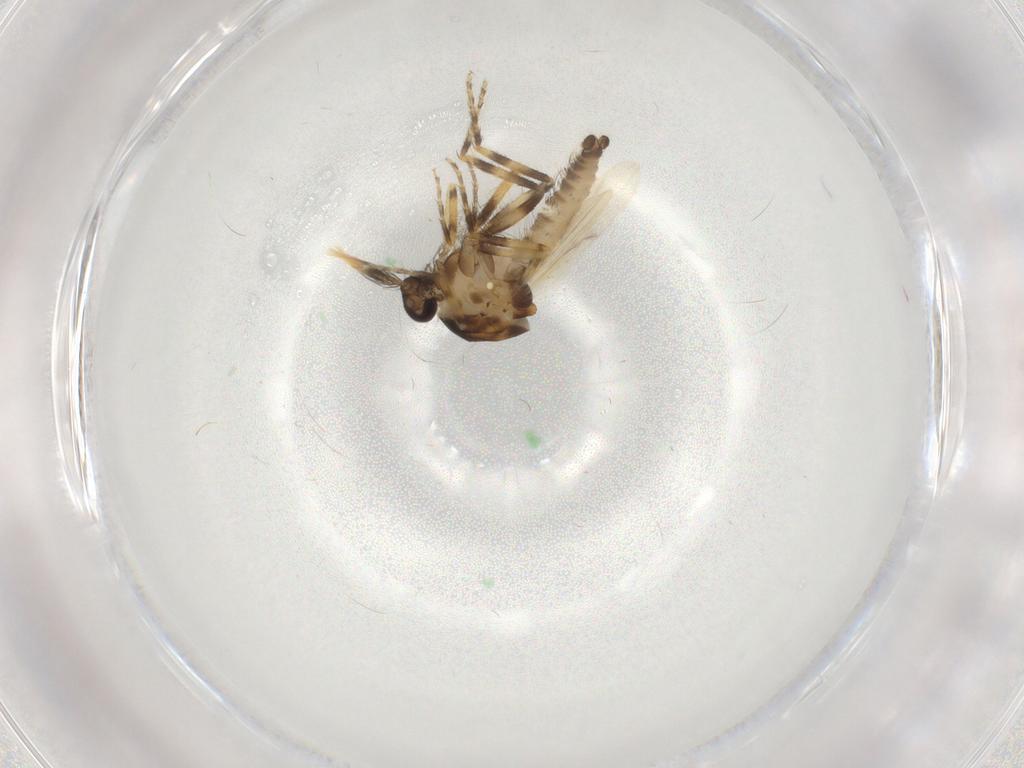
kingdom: Animalia
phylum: Arthropoda
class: Insecta
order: Diptera
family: Ceratopogonidae
